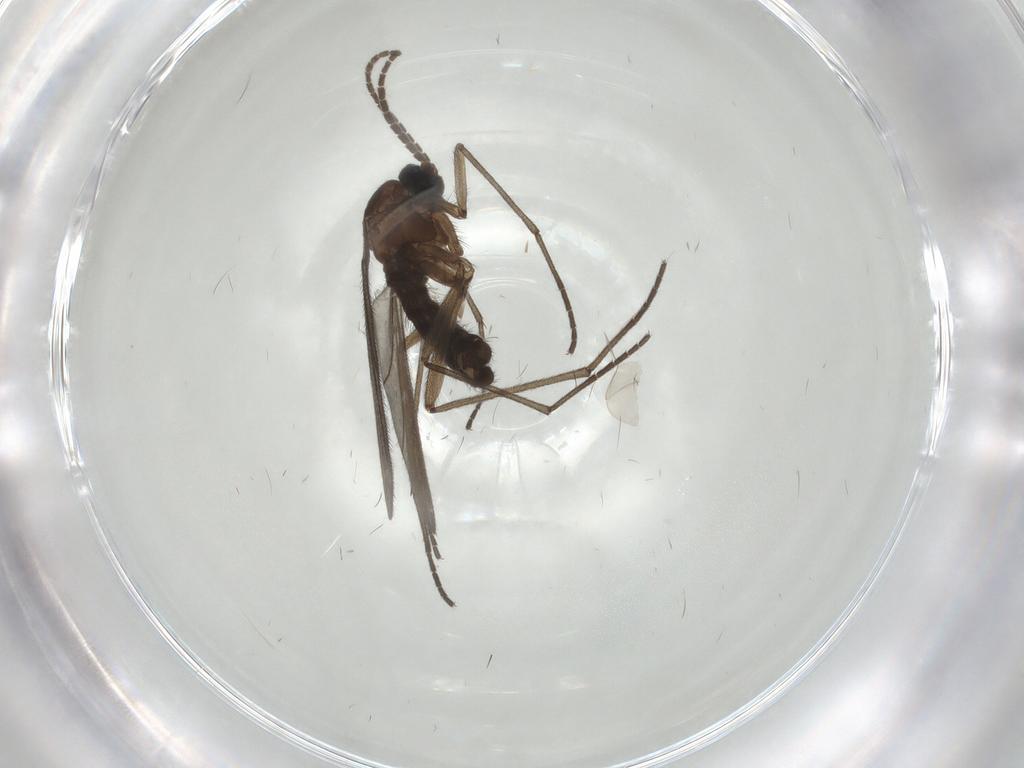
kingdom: Animalia
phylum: Arthropoda
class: Insecta
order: Diptera
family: Sciaridae
